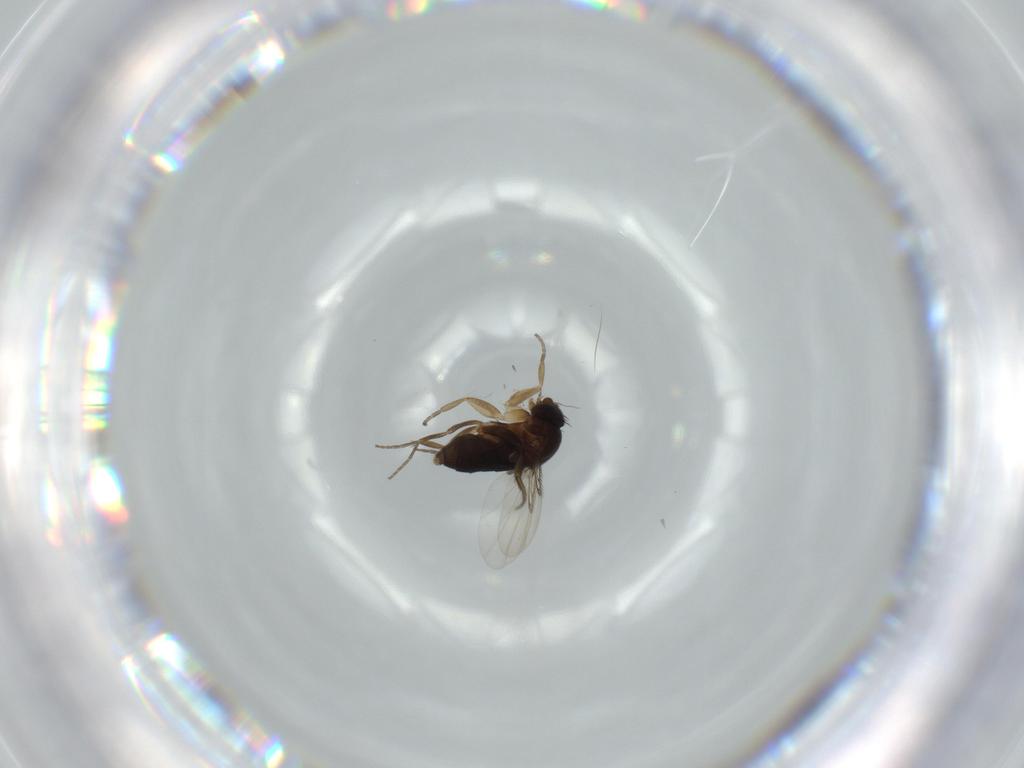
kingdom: Animalia
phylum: Arthropoda
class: Insecta
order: Diptera
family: Phoridae
